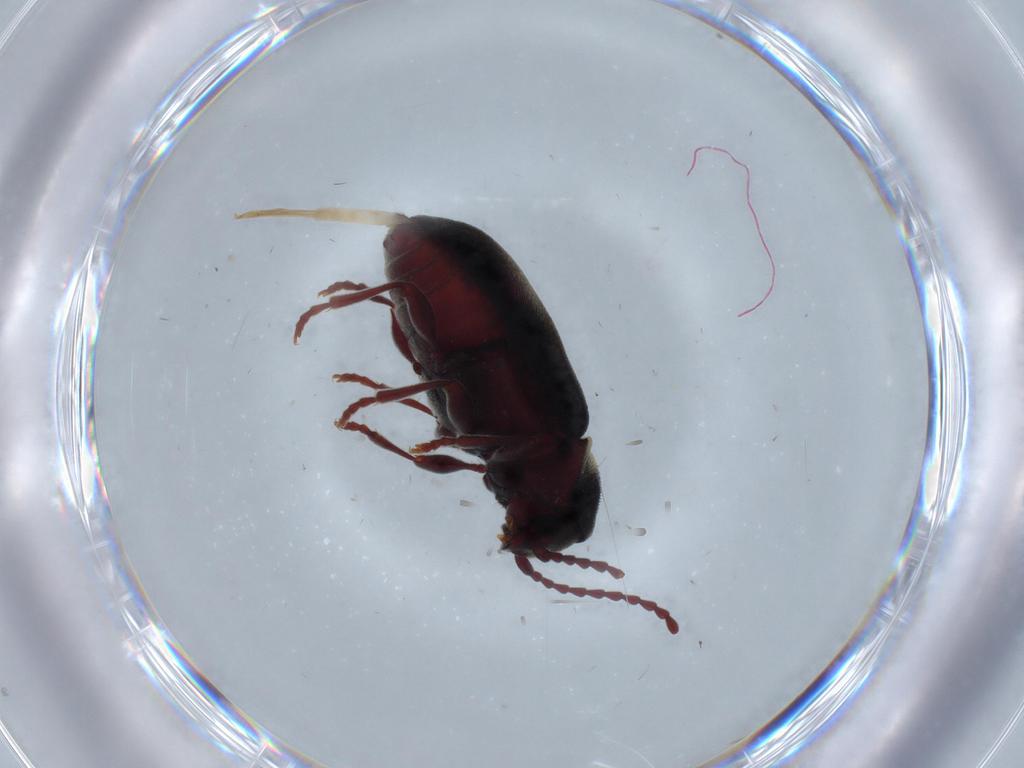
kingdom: Animalia
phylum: Arthropoda
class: Insecta
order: Coleoptera
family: Ptinidae
